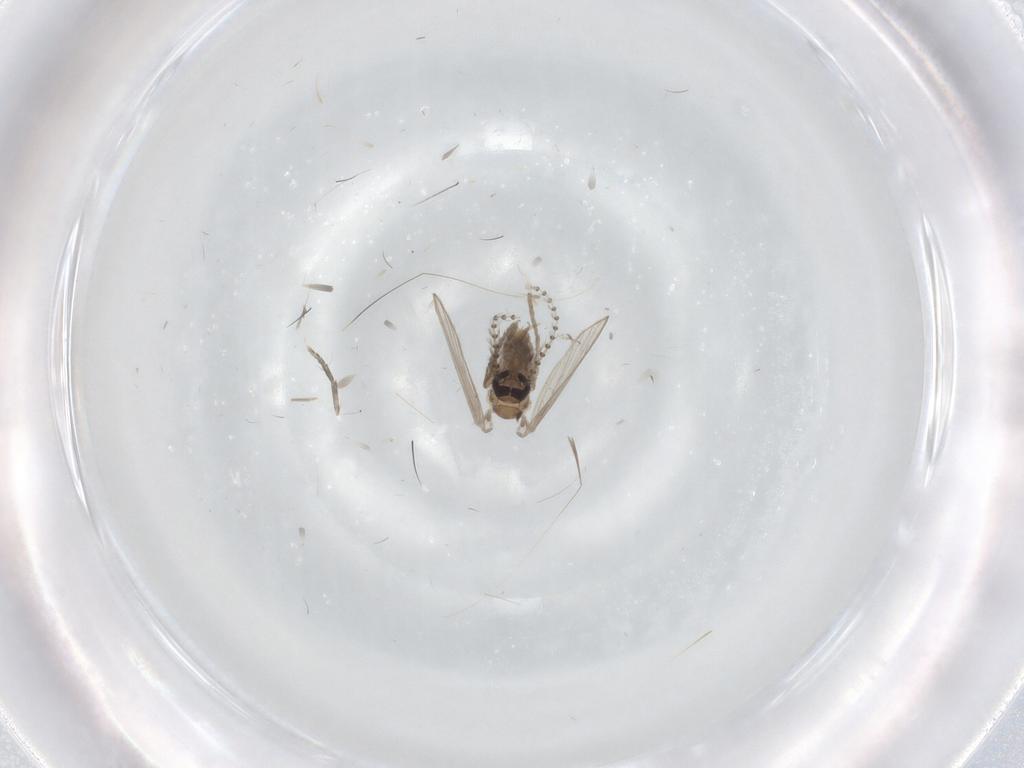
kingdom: Animalia
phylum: Arthropoda
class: Insecta
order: Diptera
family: Psychodidae
